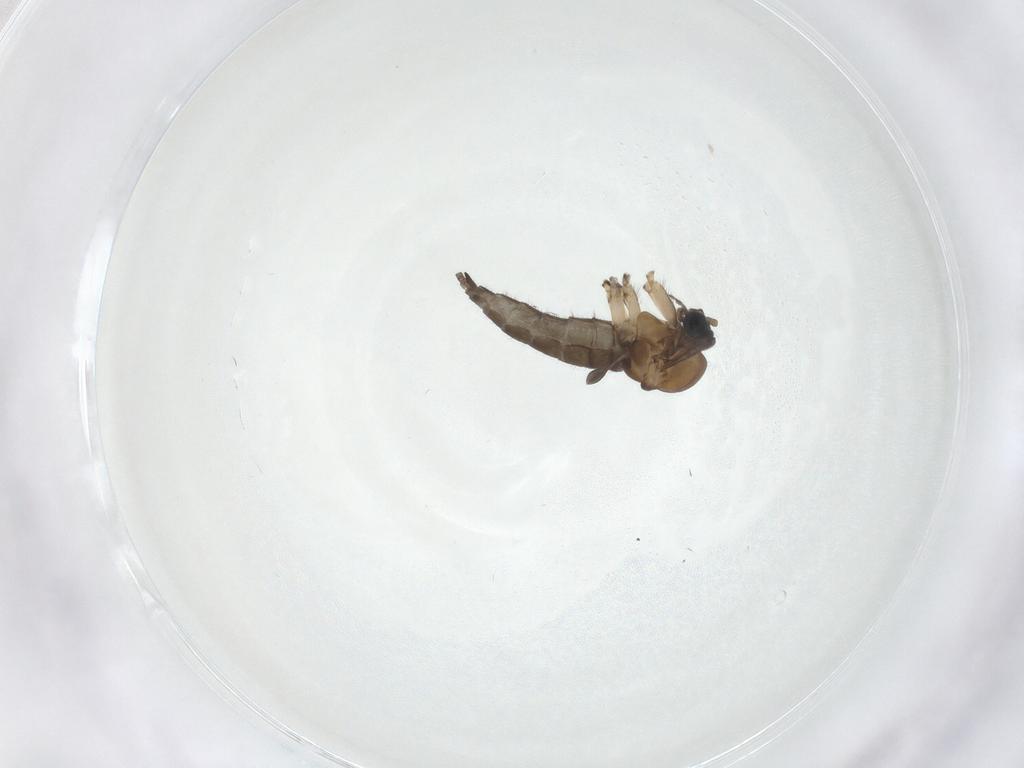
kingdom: Animalia
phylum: Arthropoda
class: Insecta
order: Diptera
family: Sciaridae
